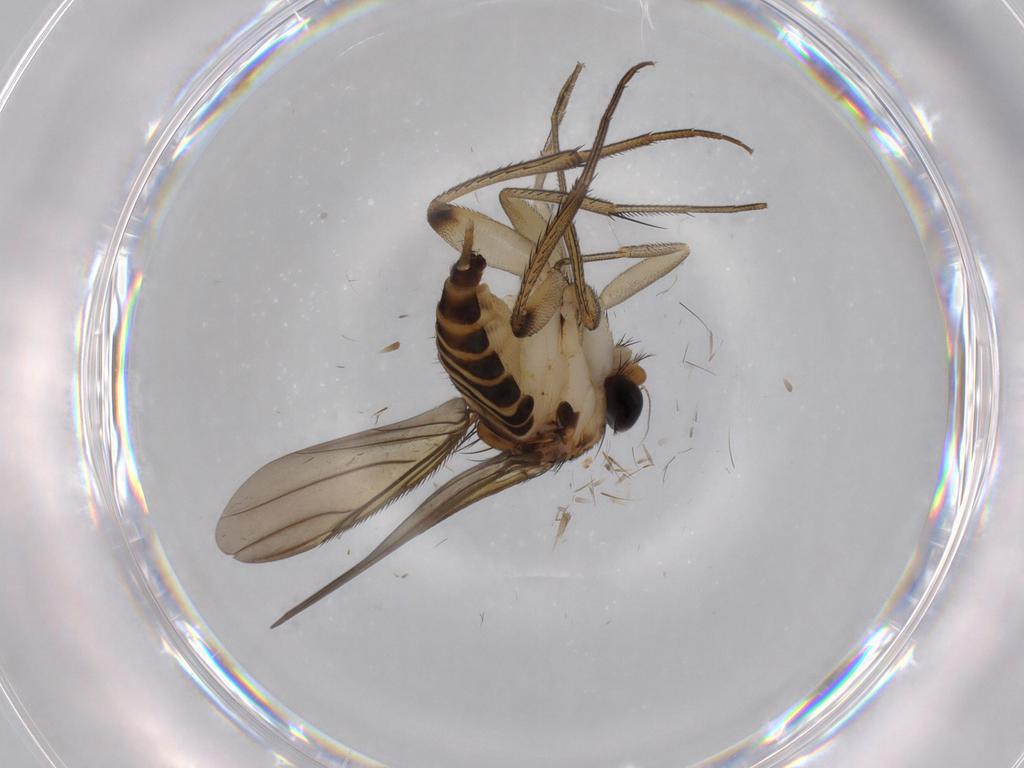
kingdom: Animalia
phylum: Arthropoda
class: Insecta
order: Diptera
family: Limoniidae
